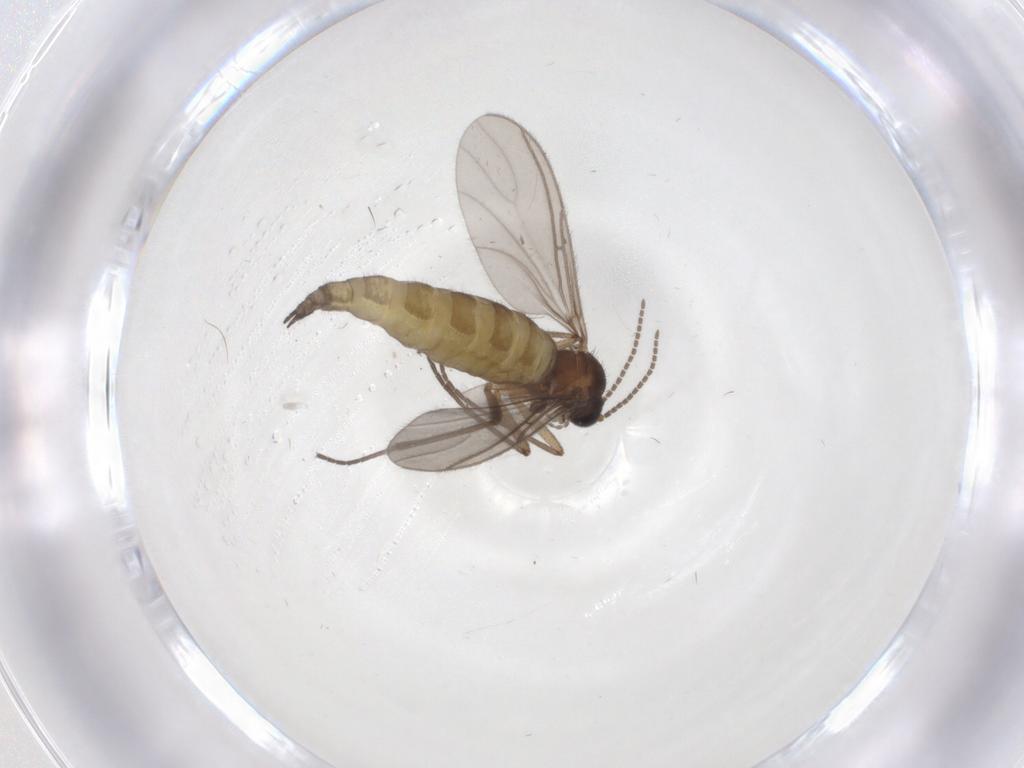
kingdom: Animalia
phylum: Arthropoda
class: Insecta
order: Diptera
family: Sciaridae
